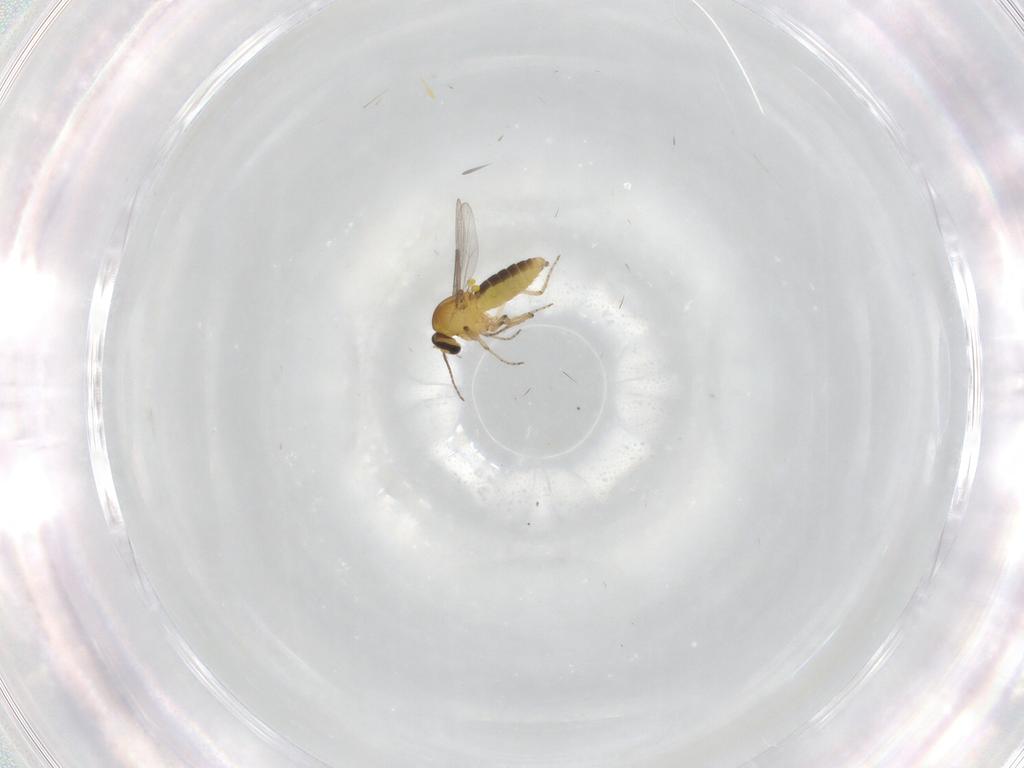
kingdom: Animalia
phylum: Arthropoda
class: Insecta
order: Diptera
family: Ceratopogonidae
